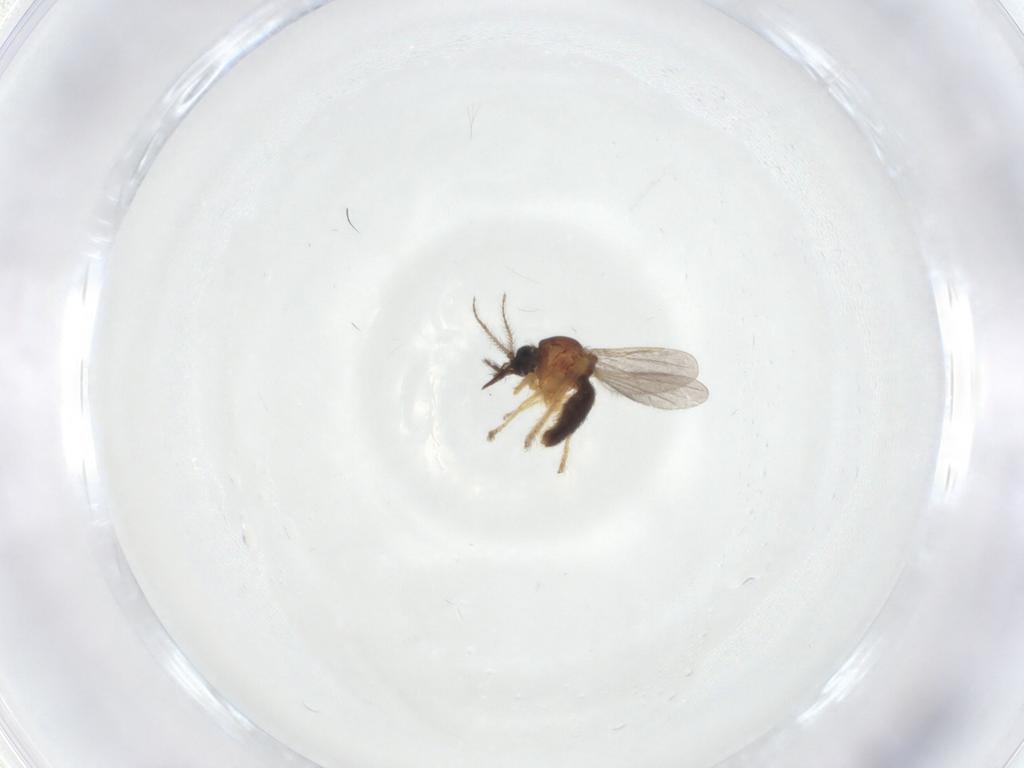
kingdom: Animalia
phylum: Arthropoda
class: Insecta
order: Diptera
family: Ceratopogonidae
